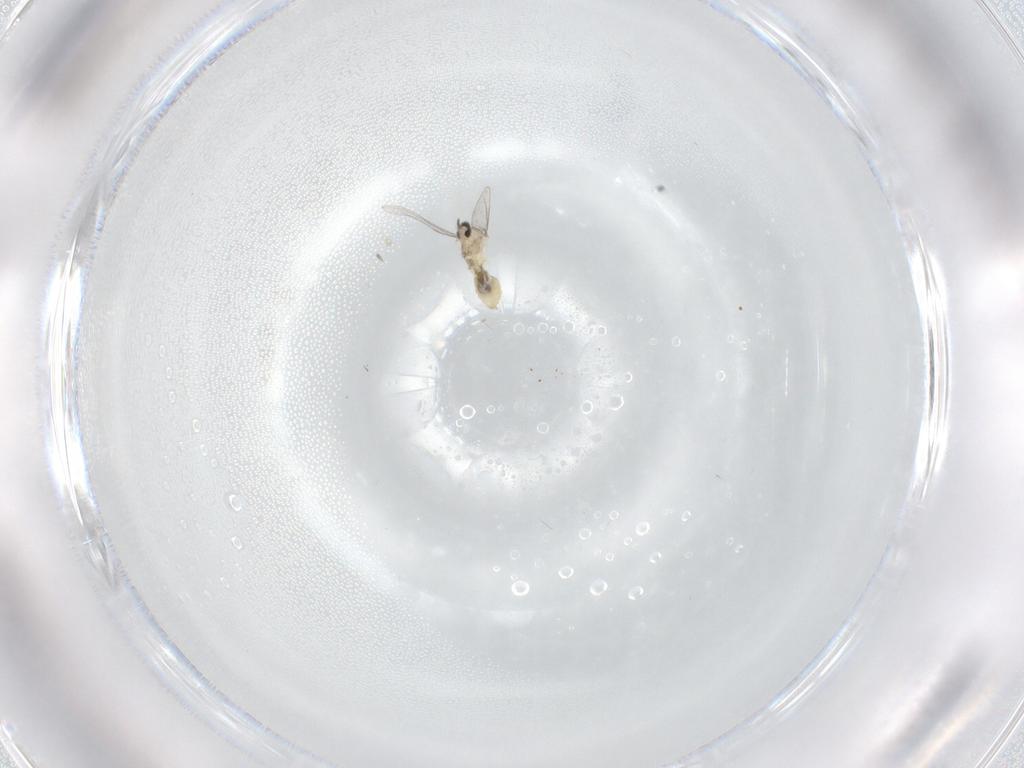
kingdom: Animalia
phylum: Arthropoda
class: Insecta
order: Diptera
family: Cecidomyiidae
